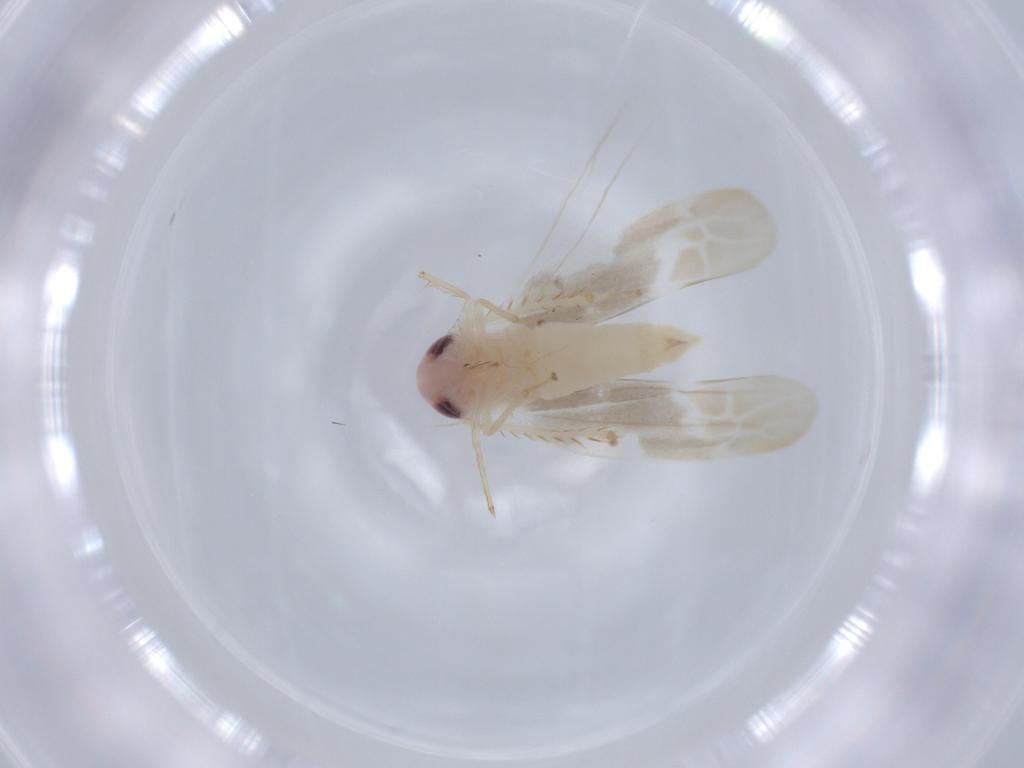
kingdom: Animalia
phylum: Arthropoda
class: Insecta
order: Hemiptera
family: Cicadellidae
